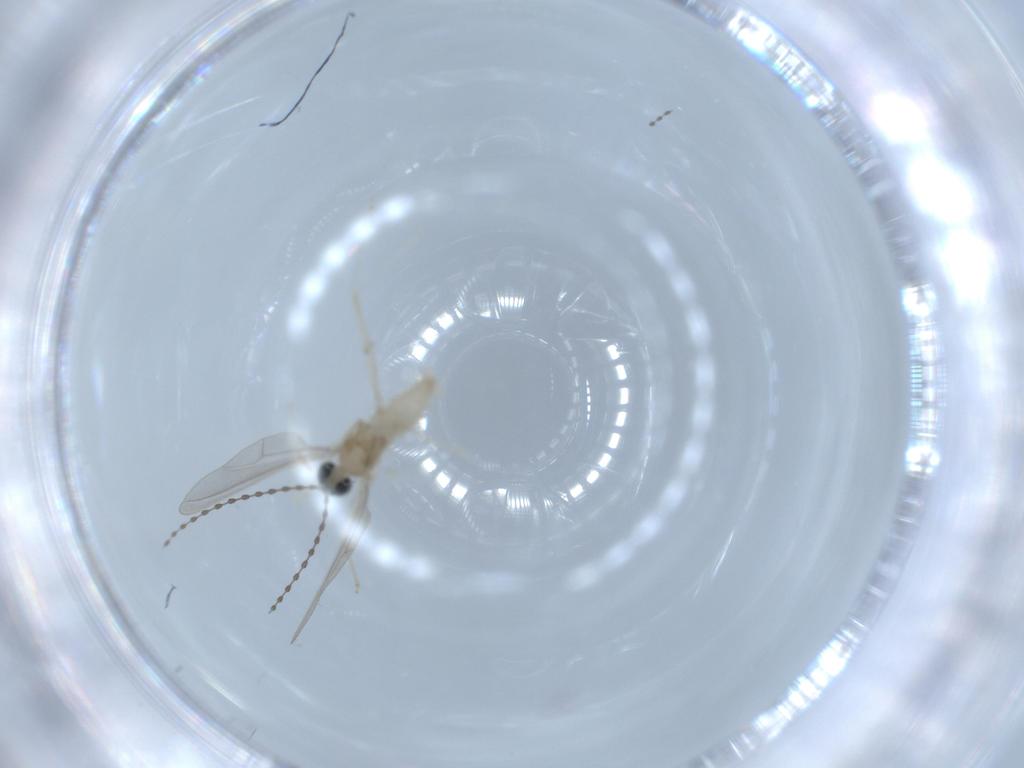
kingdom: Animalia
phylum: Arthropoda
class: Insecta
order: Diptera
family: Cecidomyiidae
